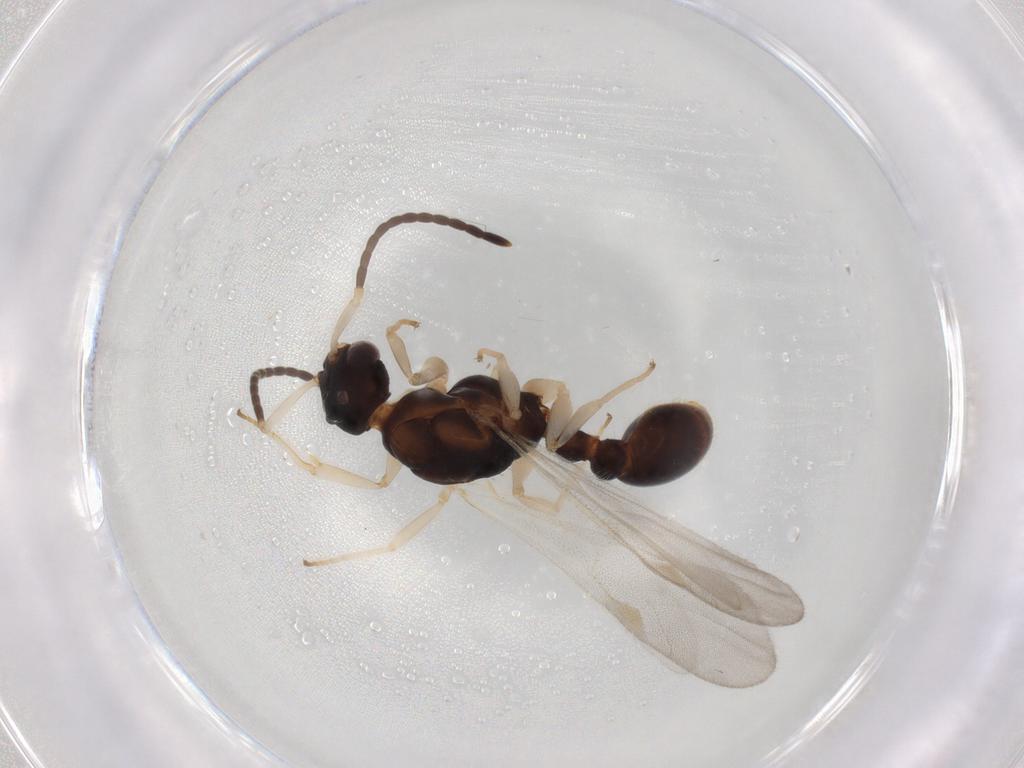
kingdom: Animalia
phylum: Arthropoda
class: Insecta
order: Hymenoptera
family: Formicidae
